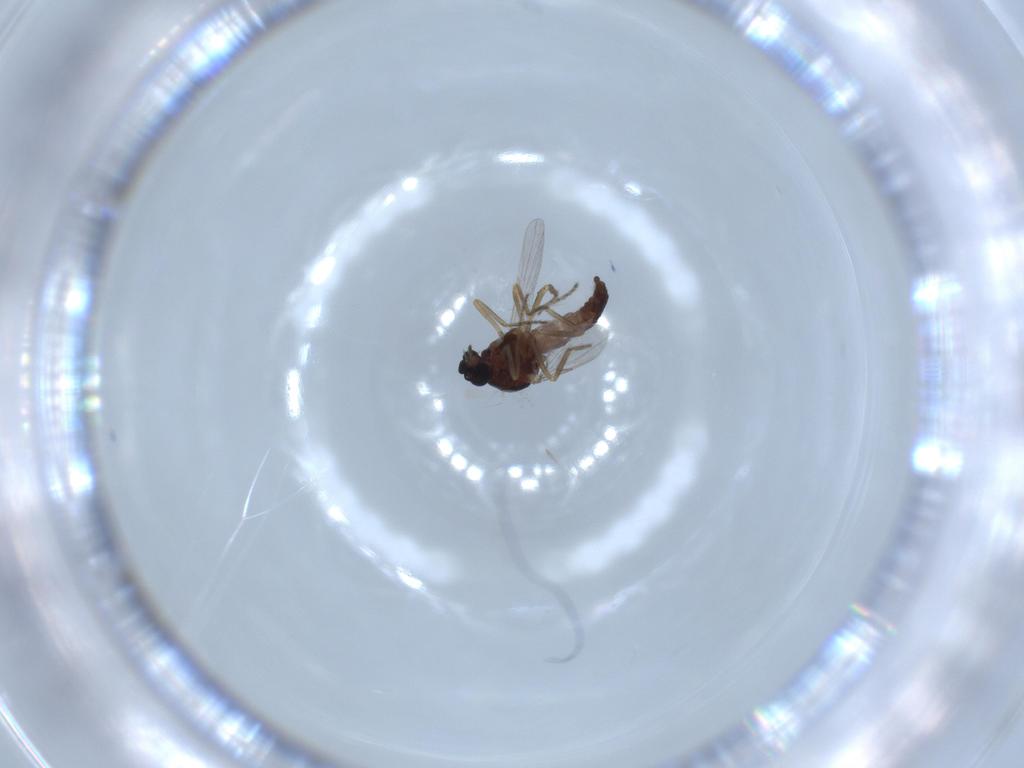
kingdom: Animalia
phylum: Arthropoda
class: Insecta
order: Diptera
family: Ceratopogonidae
